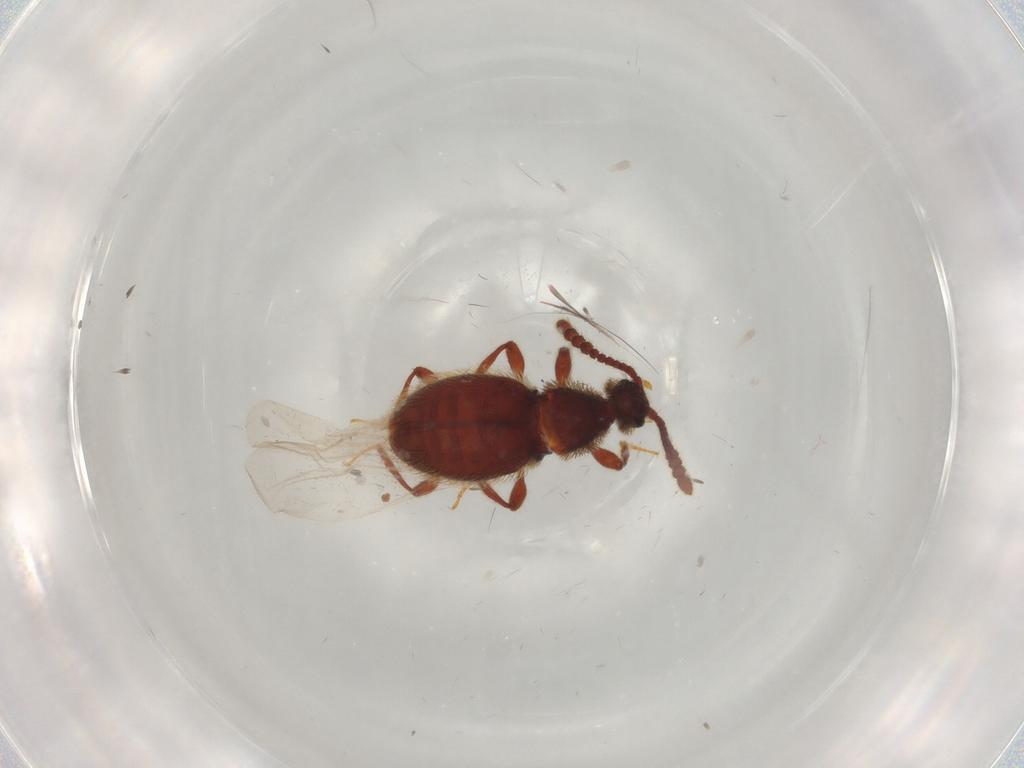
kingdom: Animalia
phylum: Arthropoda
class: Insecta
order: Coleoptera
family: Staphylinidae
